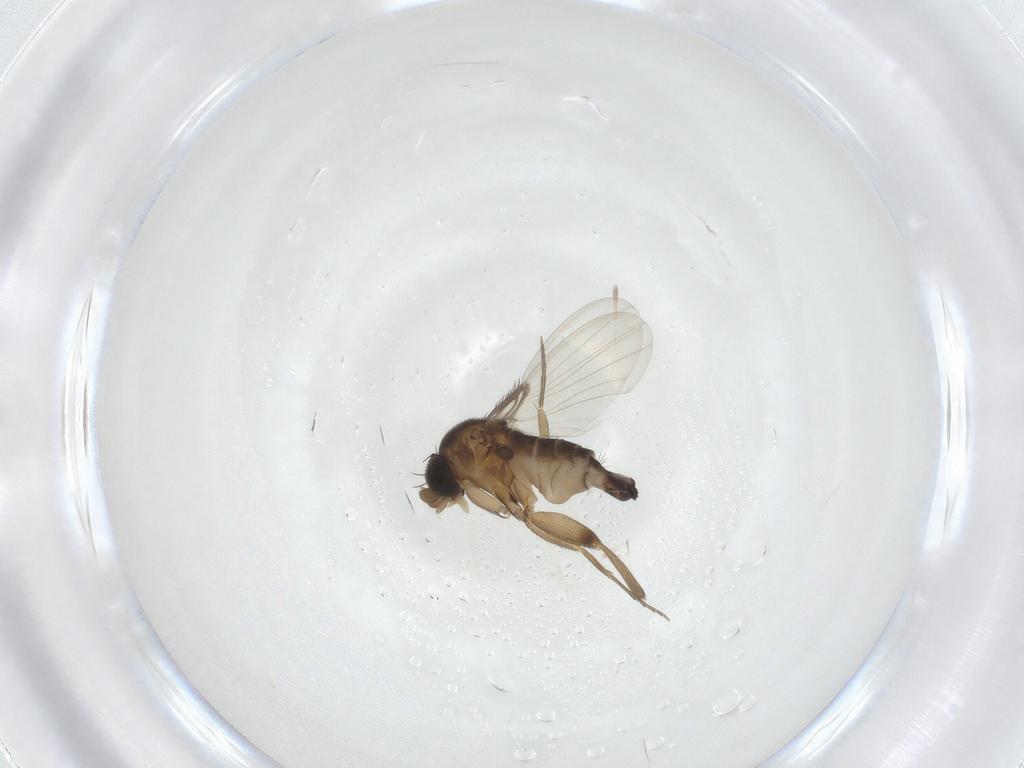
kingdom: Animalia
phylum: Arthropoda
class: Insecta
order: Diptera
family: Phoridae
